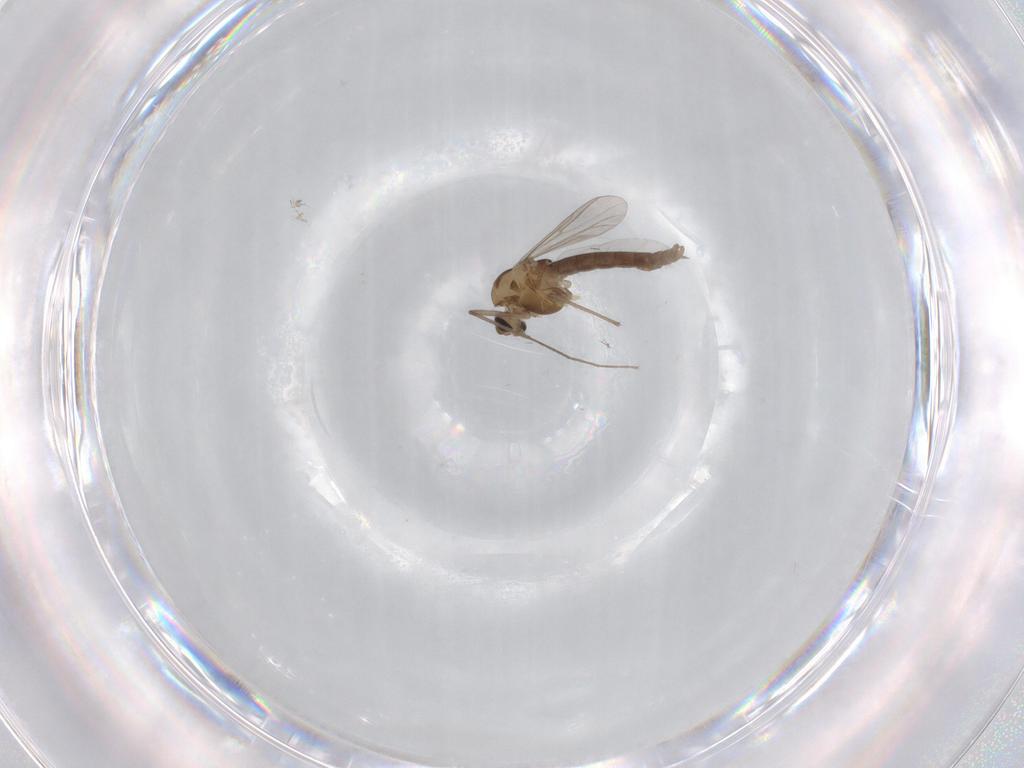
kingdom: Animalia
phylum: Arthropoda
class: Insecta
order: Diptera
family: Chironomidae
